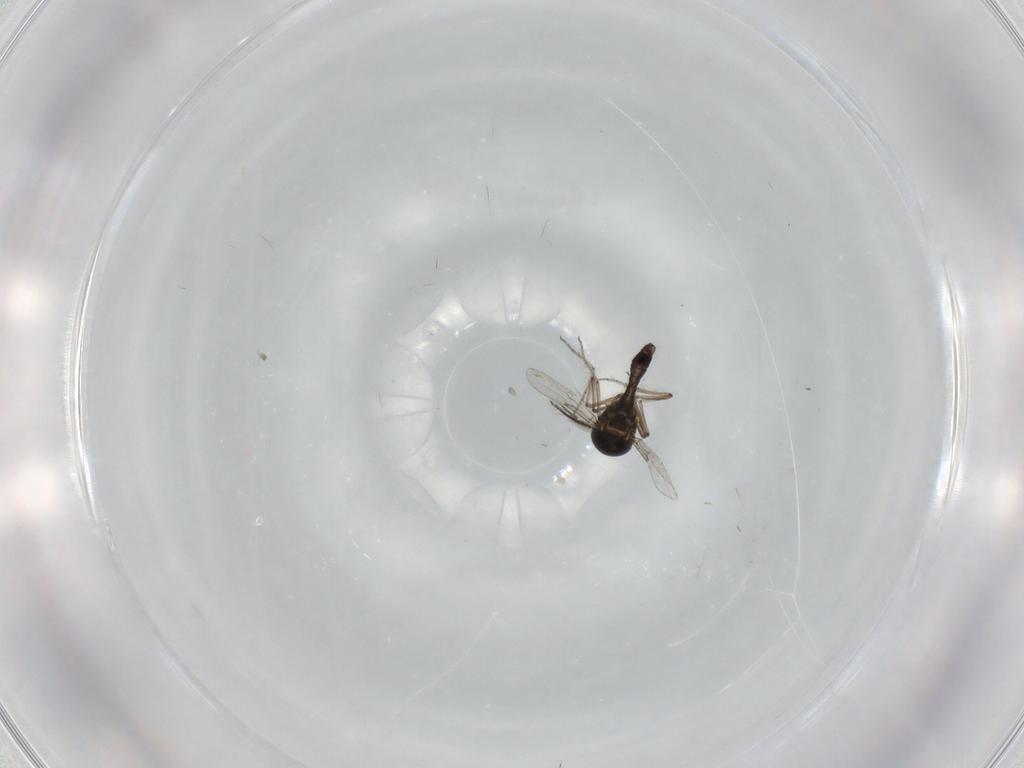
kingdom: Animalia
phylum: Arthropoda
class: Insecta
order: Diptera
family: Ceratopogonidae
